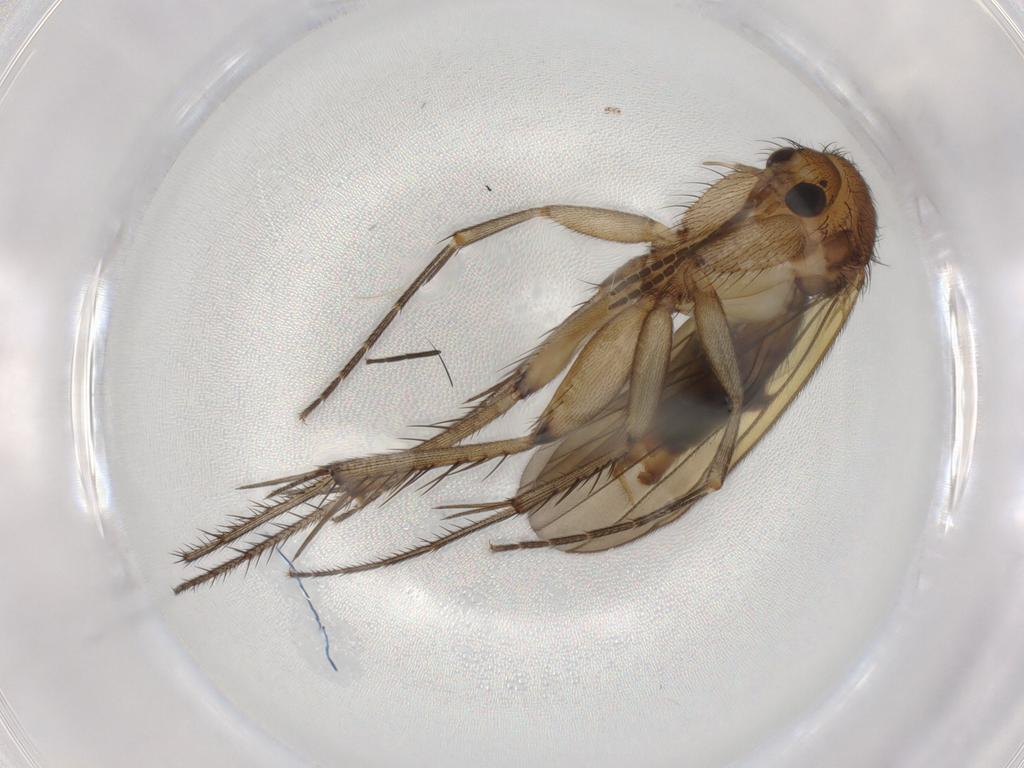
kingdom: Animalia
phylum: Arthropoda
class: Insecta
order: Diptera
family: Mycetophilidae
